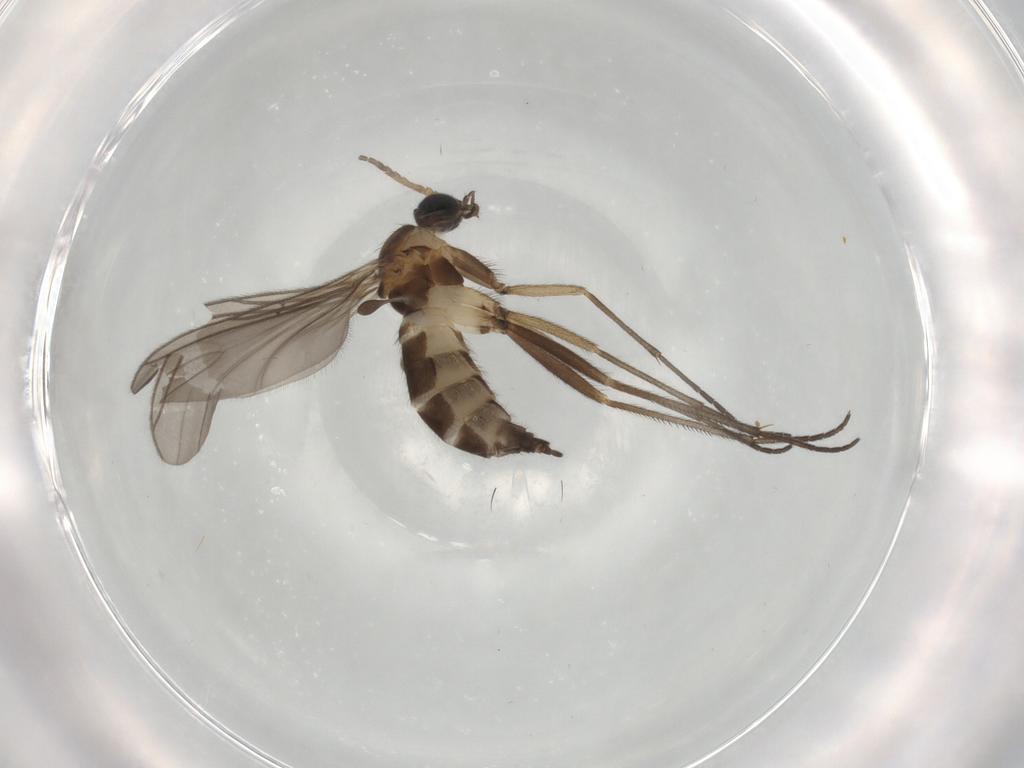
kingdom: Animalia
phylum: Arthropoda
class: Insecta
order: Diptera
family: Sciaridae
